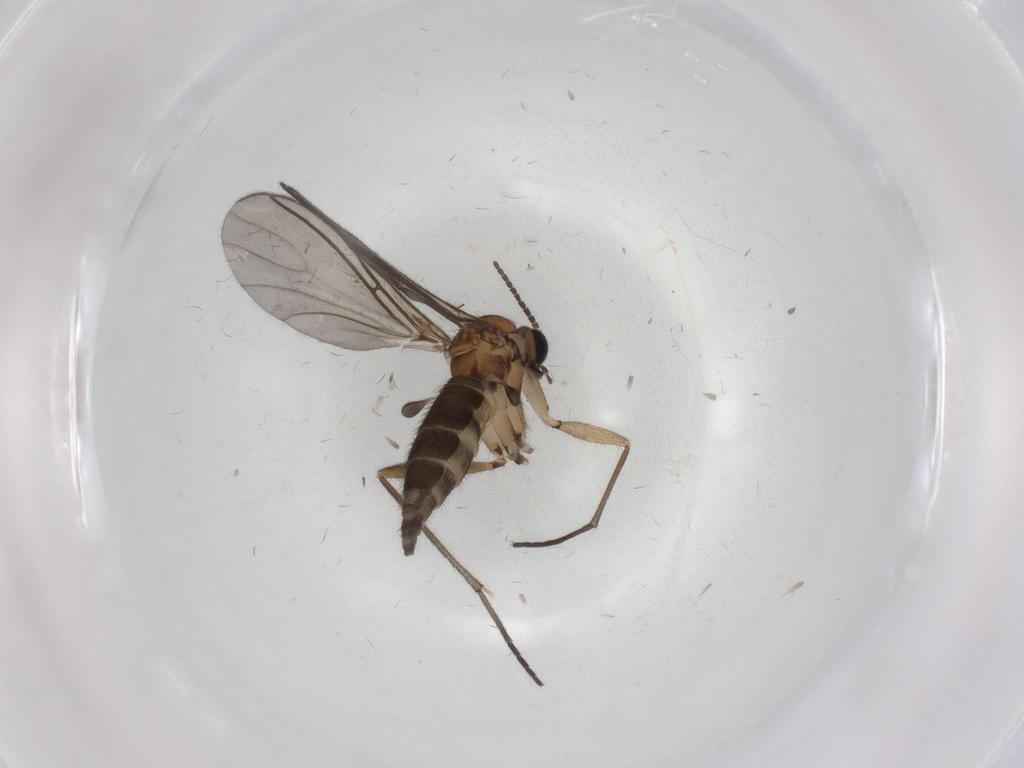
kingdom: Animalia
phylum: Arthropoda
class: Insecta
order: Diptera
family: Sciaridae
